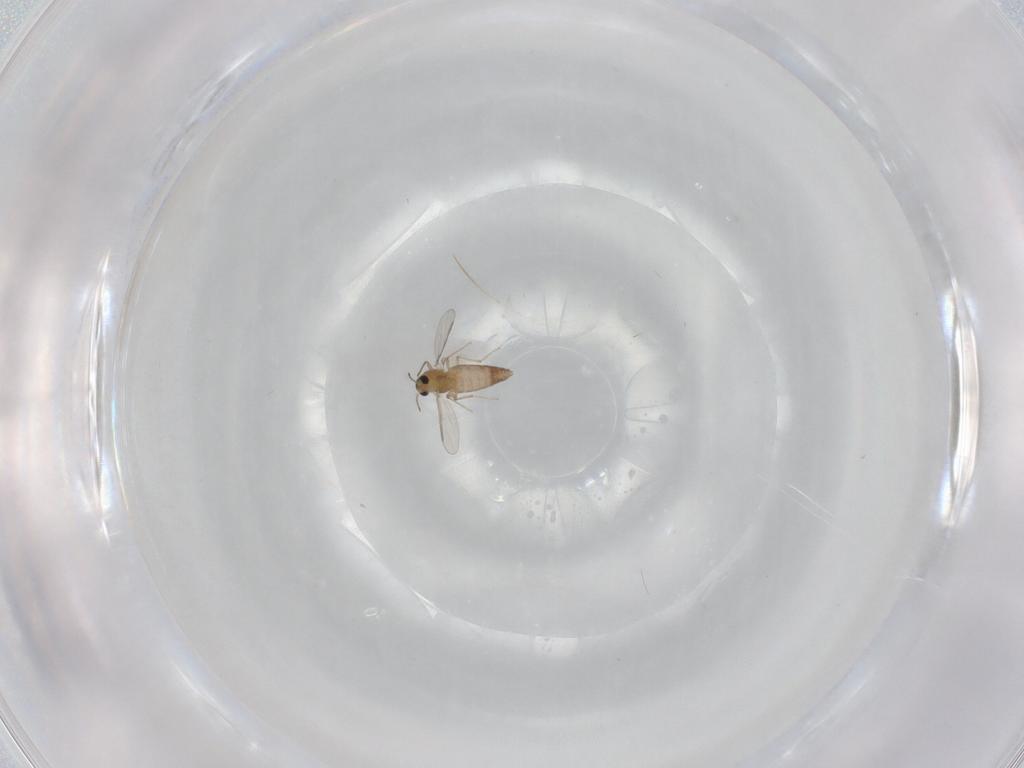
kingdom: Animalia
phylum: Arthropoda
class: Insecta
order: Diptera
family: Chironomidae
